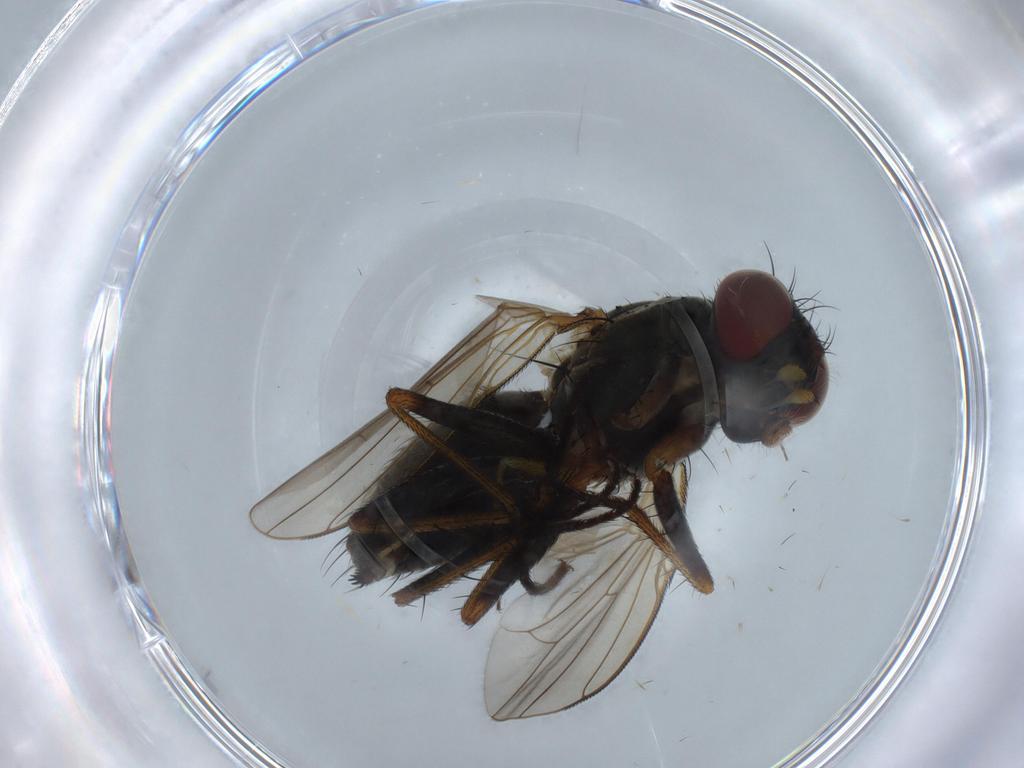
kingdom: Animalia
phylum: Arthropoda
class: Insecta
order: Diptera
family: Muscidae
